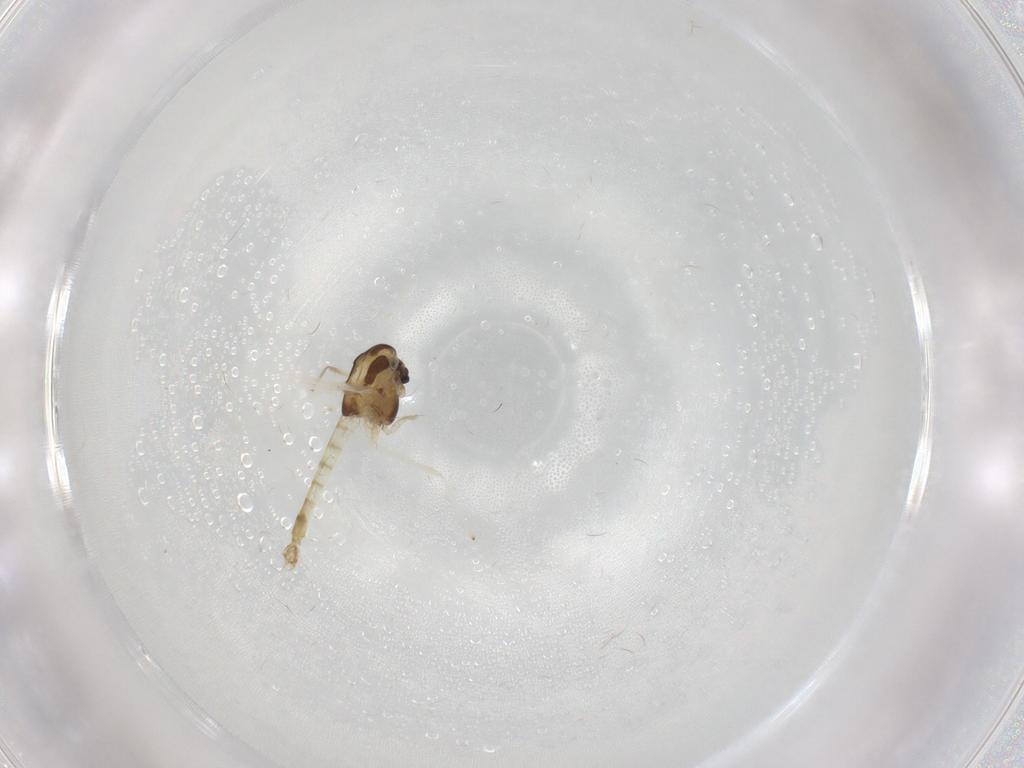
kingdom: Animalia
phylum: Arthropoda
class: Insecta
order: Diptera
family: Chironomidae
